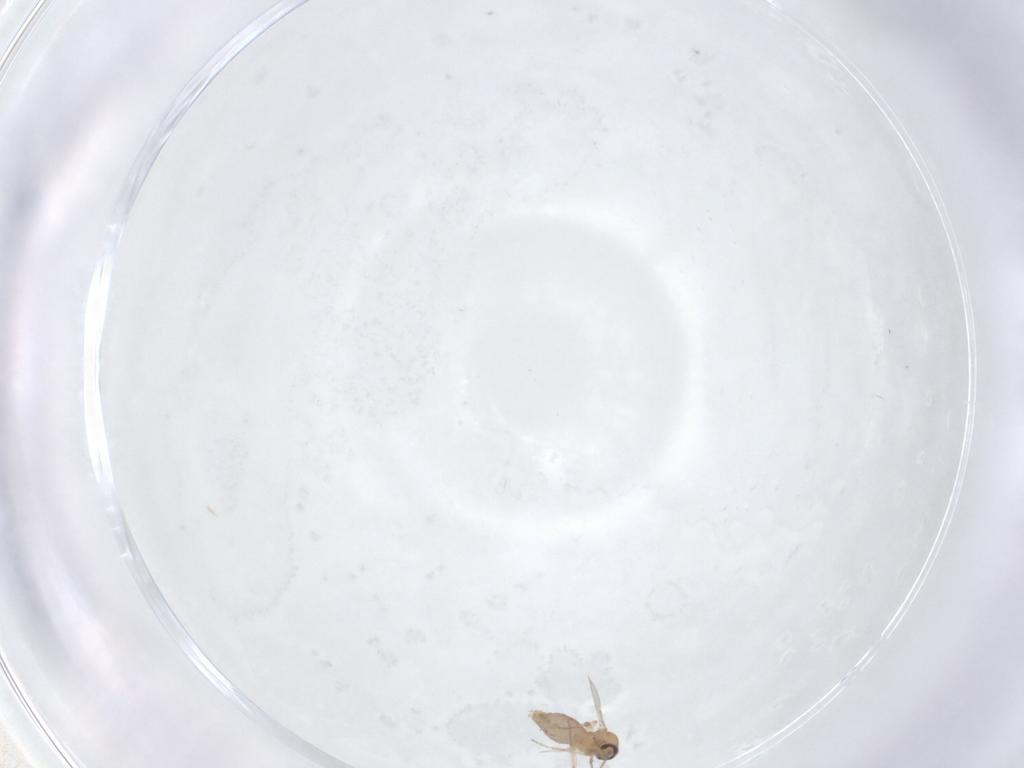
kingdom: Animalia
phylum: Arthropoda
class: Insecta
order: Diptera
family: Ceratopogonidae
